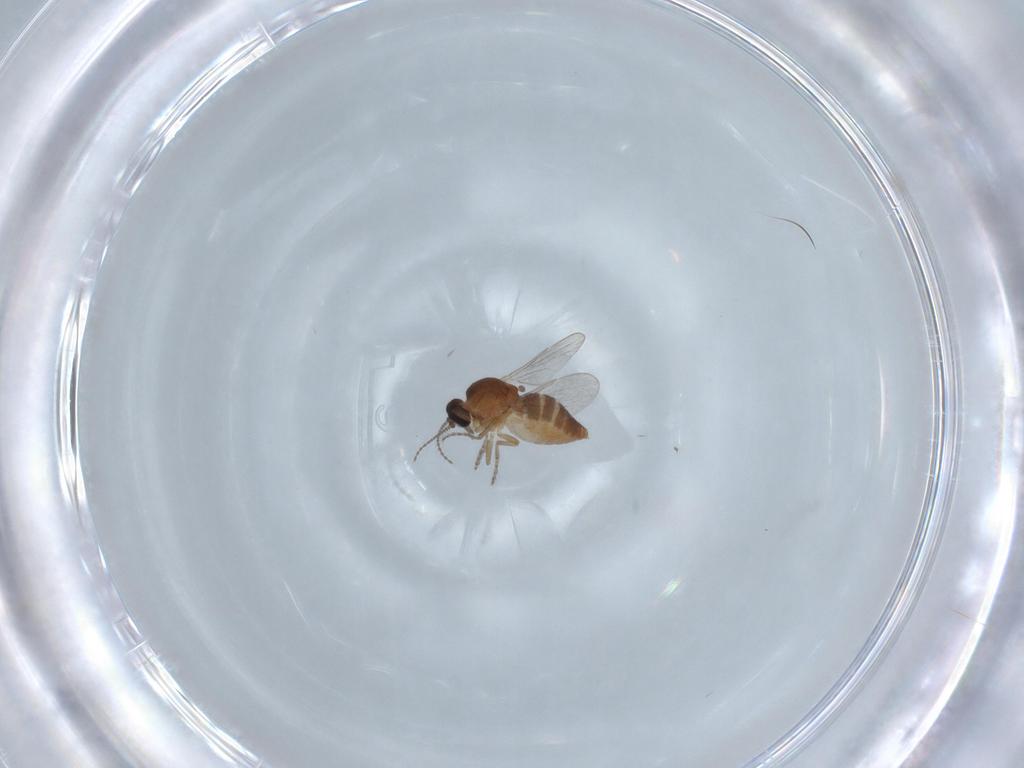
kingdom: Animalia
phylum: Arthropoda
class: Insecta
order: Diptera
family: Ceratopogonidae
